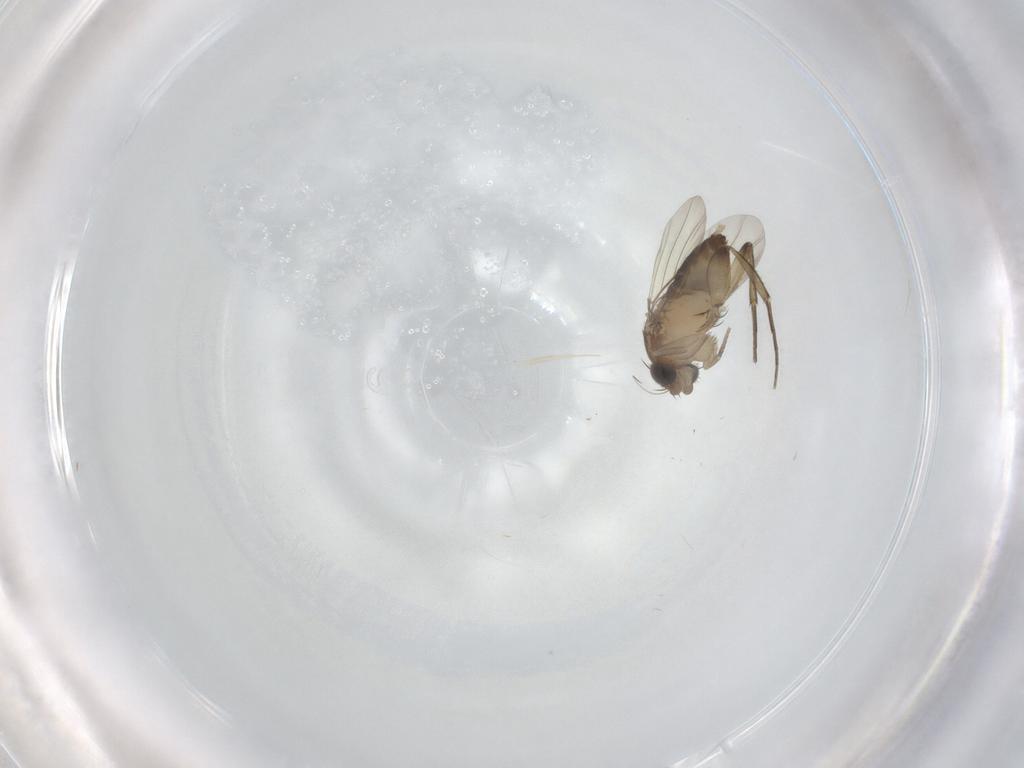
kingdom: Animalia
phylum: Arthropoda
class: Insecta
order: Diptera
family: Phoridae
